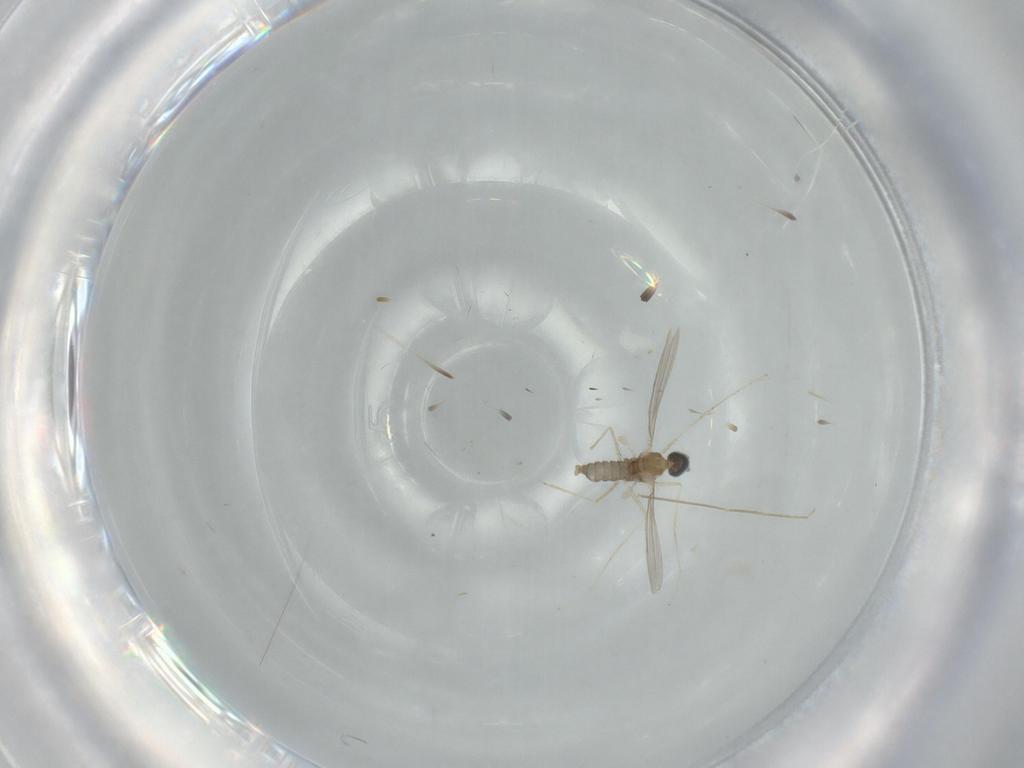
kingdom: Animalia
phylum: Arthropoda
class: Insecta
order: Diptera
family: Cecidomyiidae
